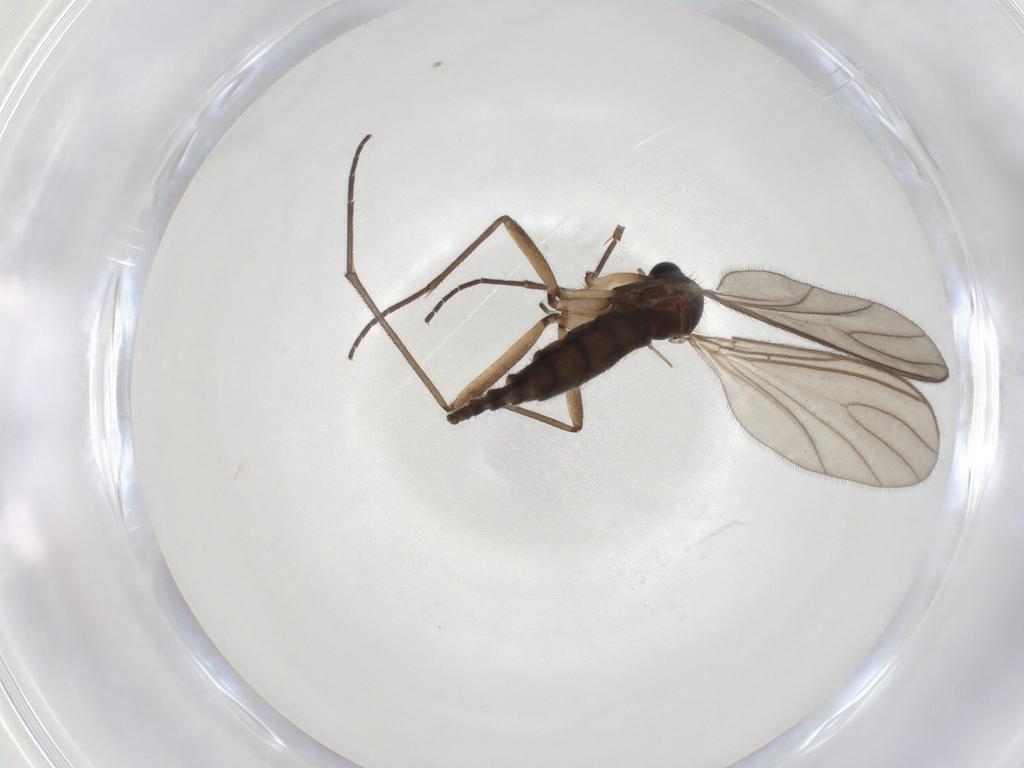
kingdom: Animalia
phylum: Arthropoda
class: Insecta
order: Diptera
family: Sciaridae
